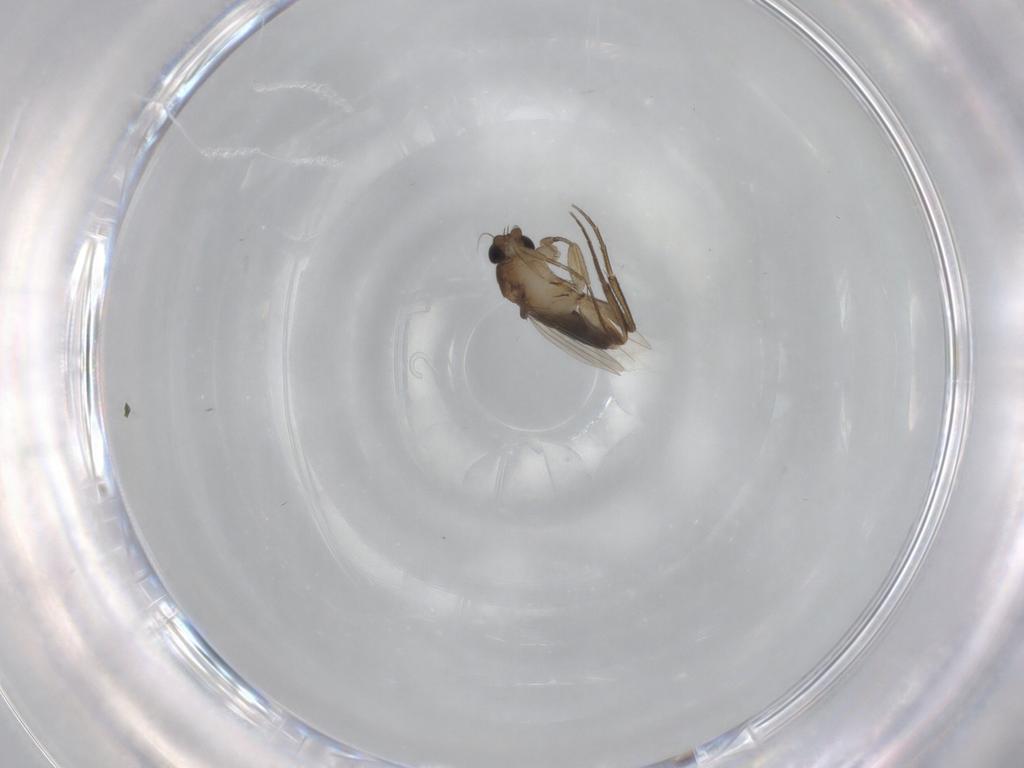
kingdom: Animalia
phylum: Arthropoda
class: Insecta
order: Diptera
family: Phoridae
